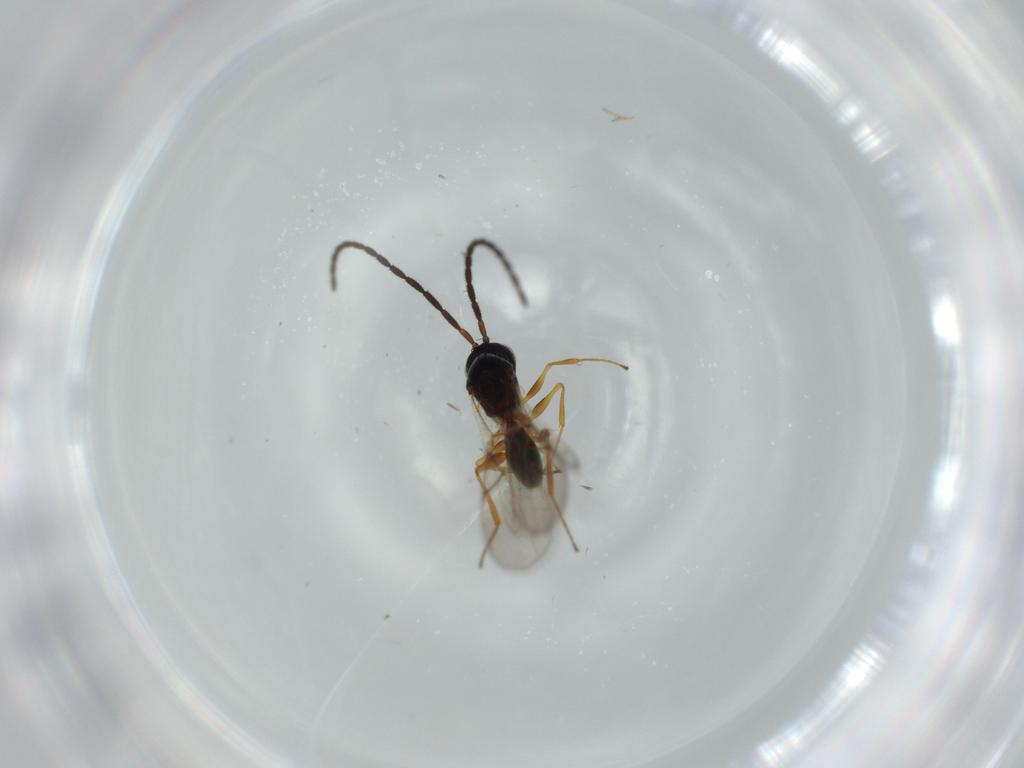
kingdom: Animalia
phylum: Arthropoda
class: Insecta
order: Hymenoptera
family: Figitidae
